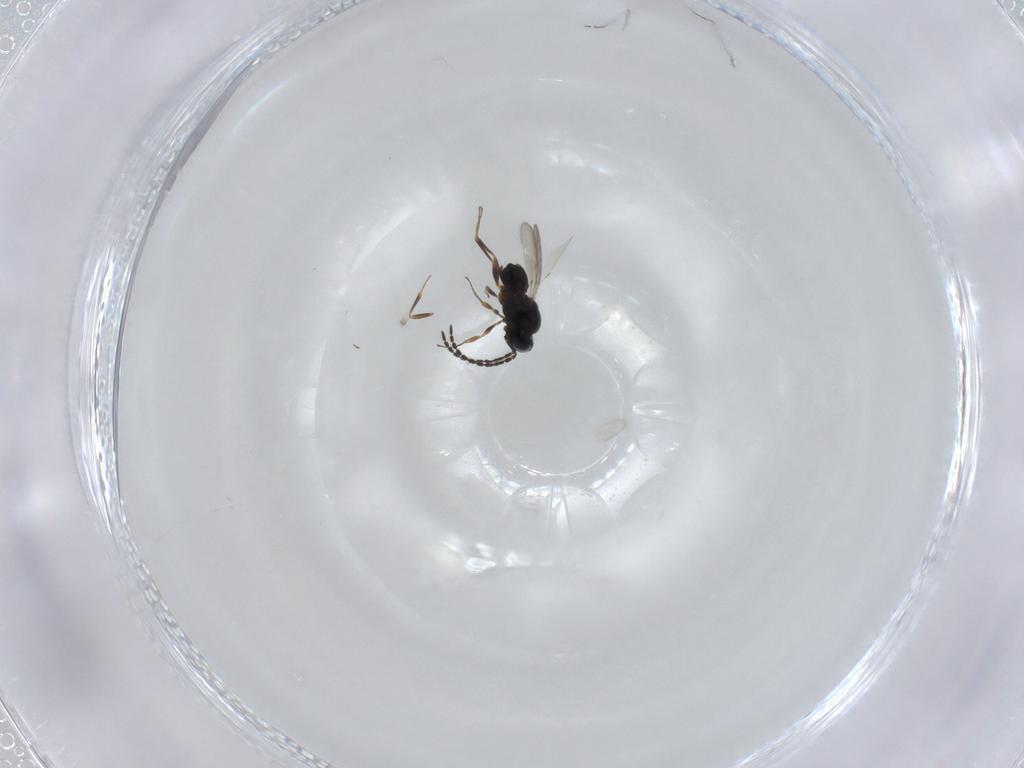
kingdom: Animalia
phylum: Arthropoda
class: Insecta
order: Hymenoptera
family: Scelionidae
